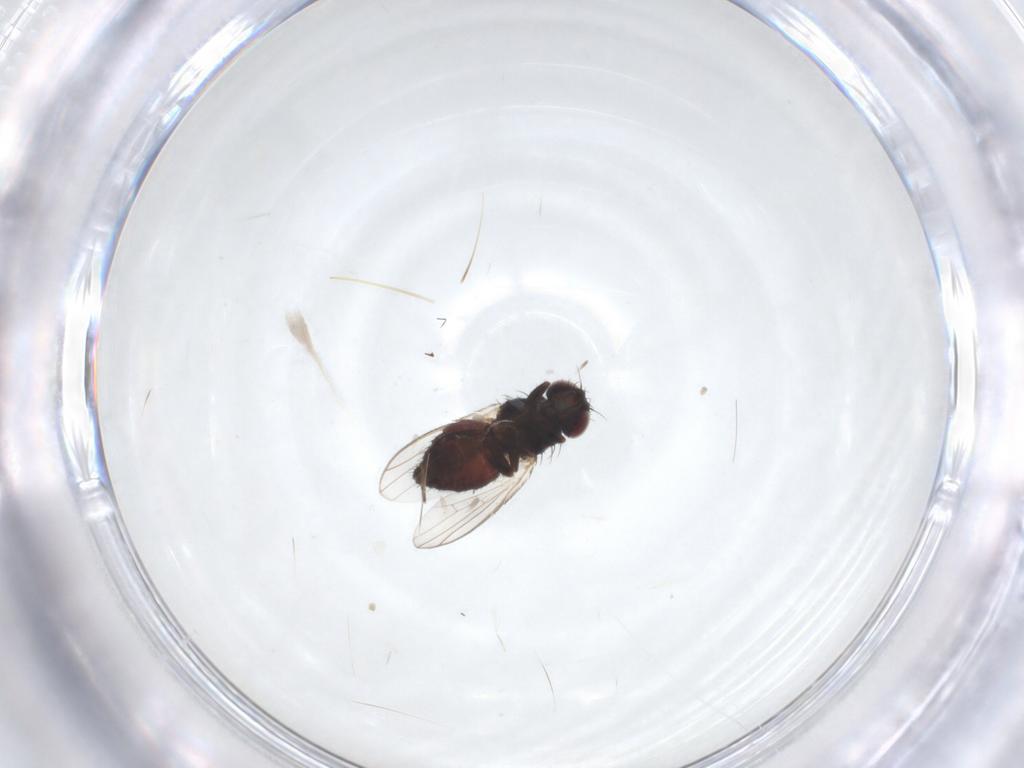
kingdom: Animalia
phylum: Arthropoda
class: Insecta
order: Diptera
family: Carnidae
